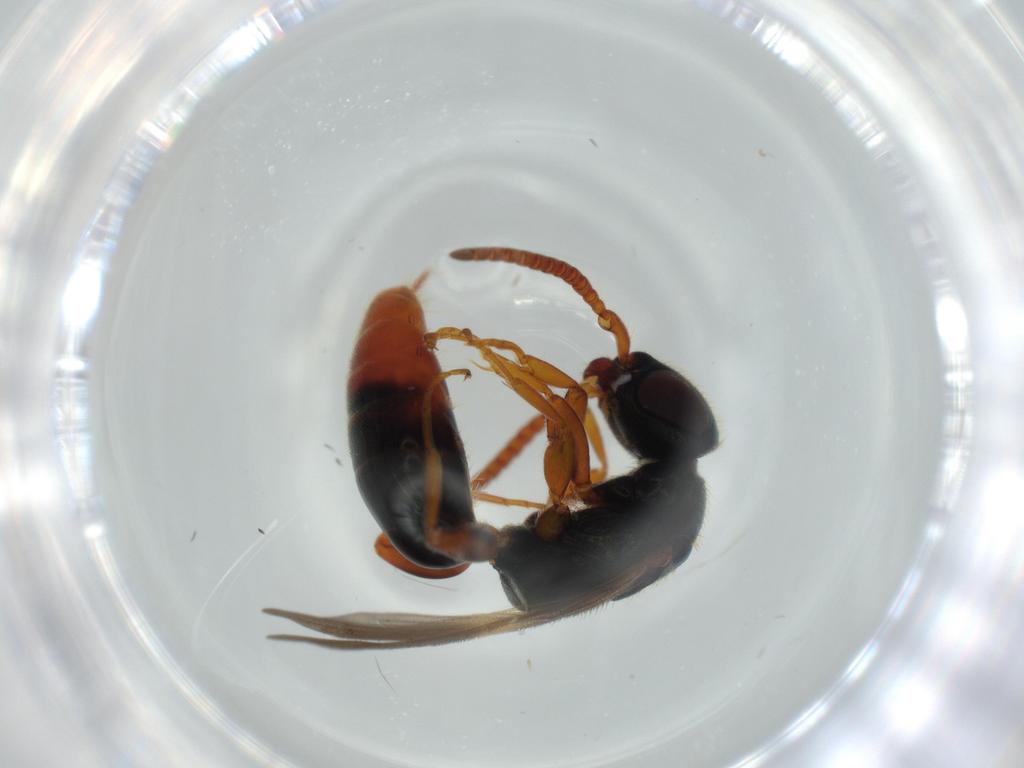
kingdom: Animalia
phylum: Arthropoda
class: Insecta
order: Hymenoptera
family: Bethylidae
